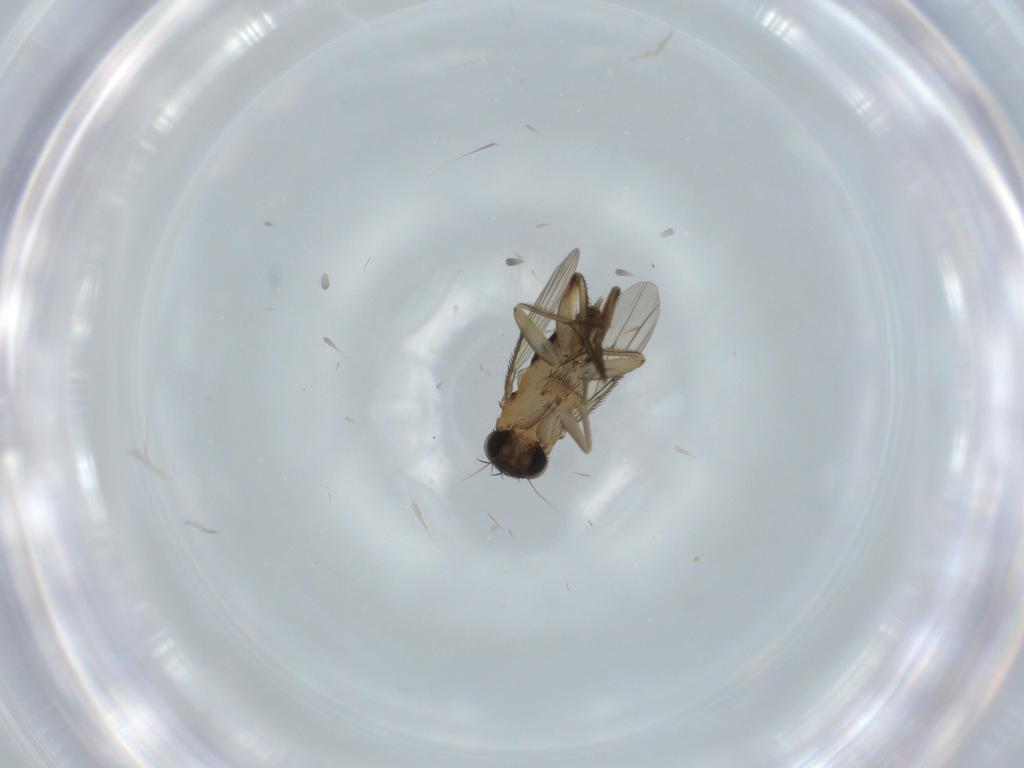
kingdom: Animalia
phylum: Arthropoda
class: Insecta
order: Diptera
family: Phoridae
